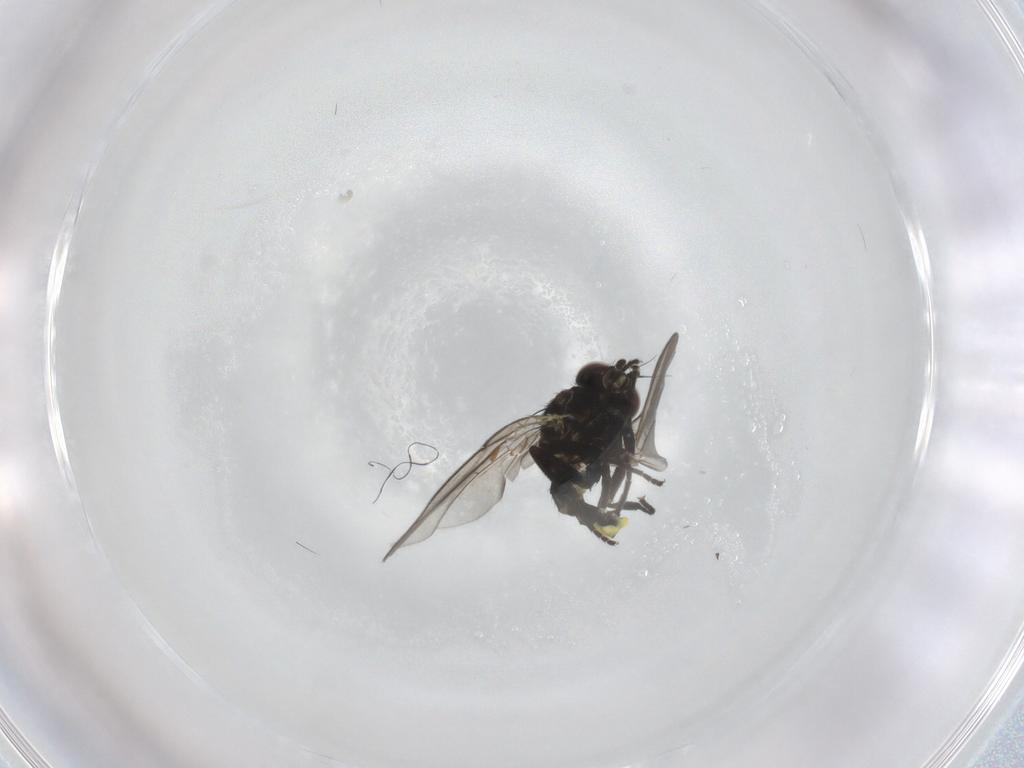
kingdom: Animalia
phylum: Arthropoda
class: Insecta
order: Diptera
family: Agromyzidae
